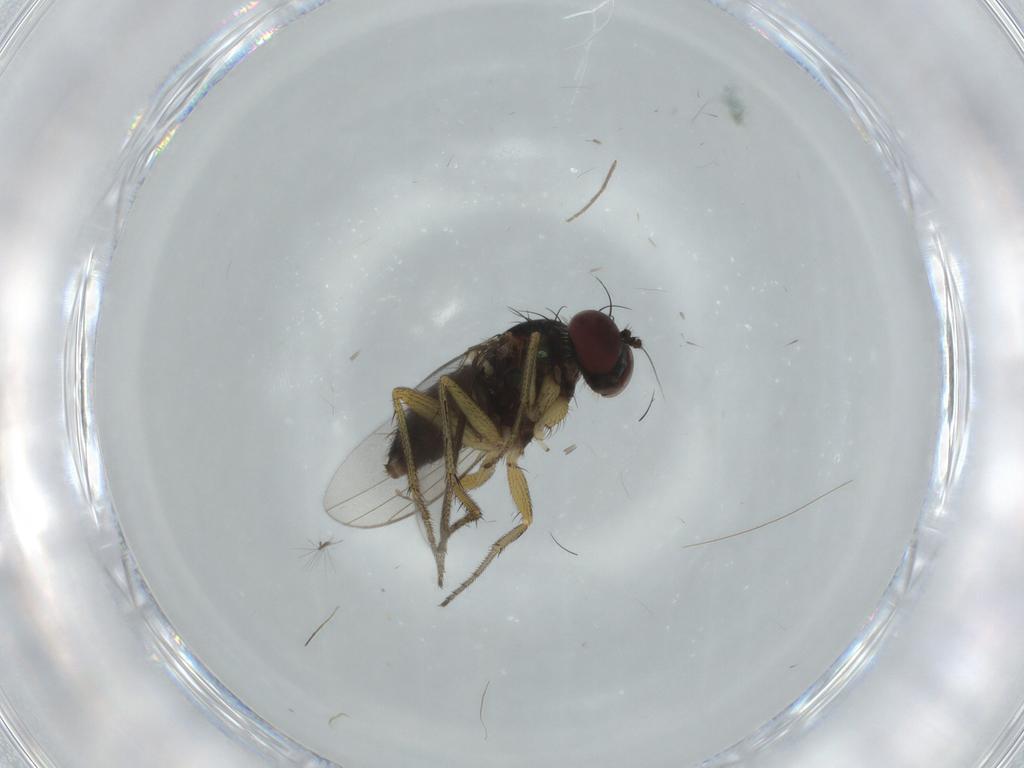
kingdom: Animalia
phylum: Arthropoda
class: Insecta
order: Diptera
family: Dolichopodidae
